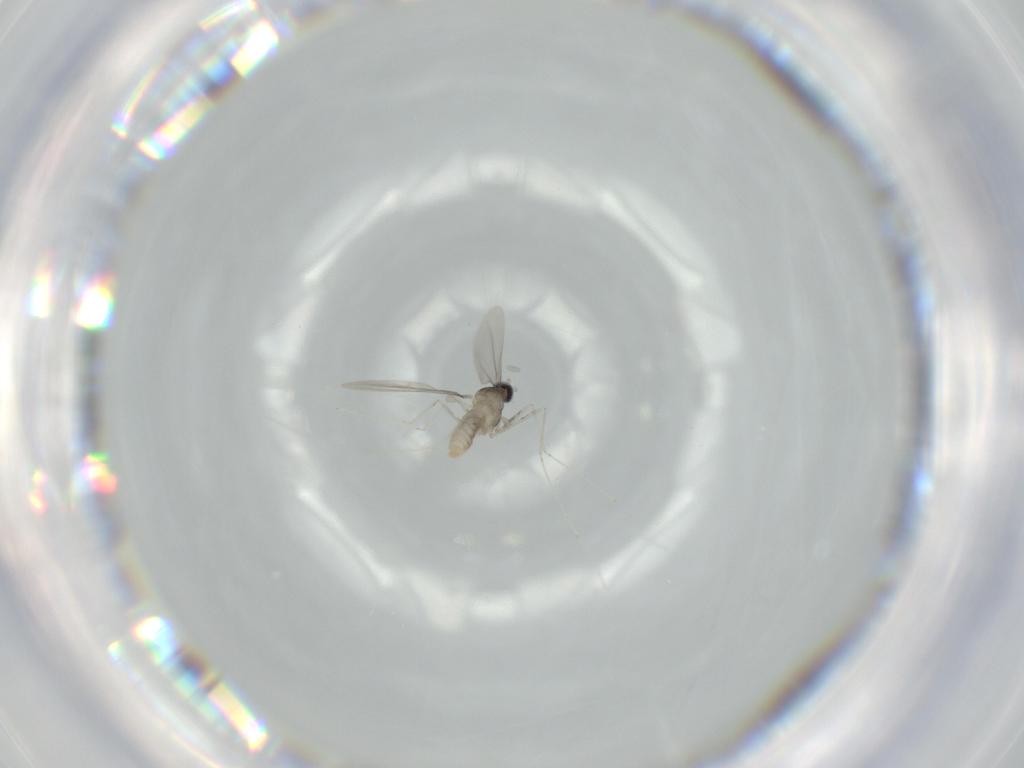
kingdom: Animalia
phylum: Arthropoda
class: Insecta
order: Diptera
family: Cecidomyiidae
